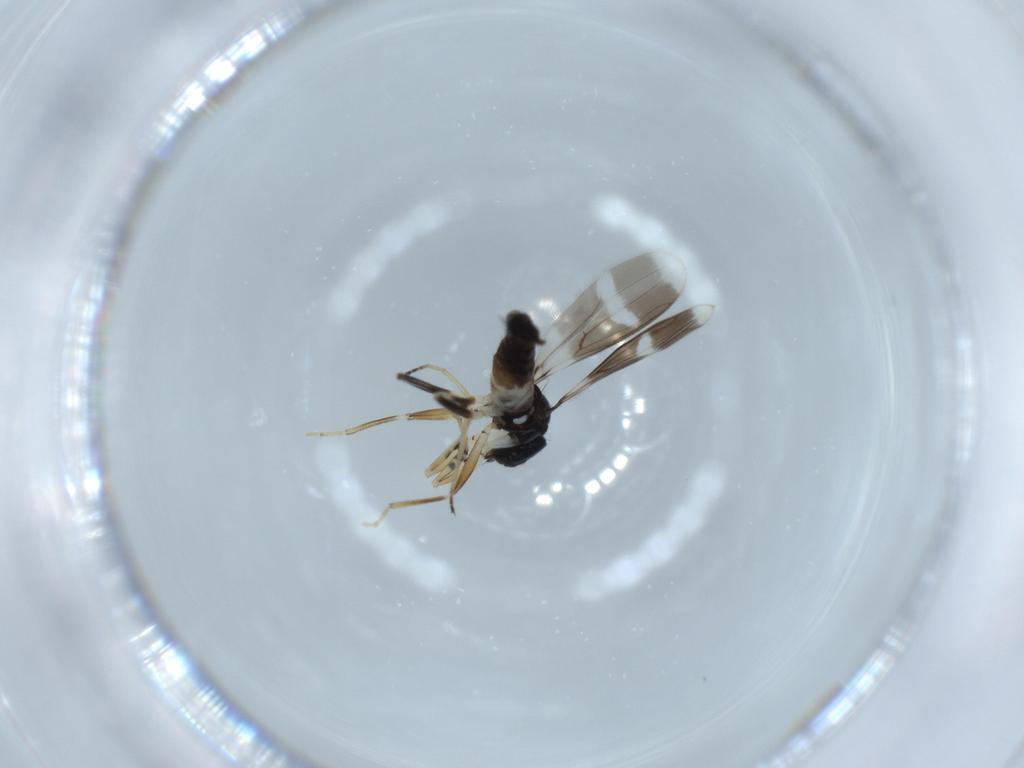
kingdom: Animalia
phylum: Arthropoda
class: Insecta
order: Diptera
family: Hybotidae
